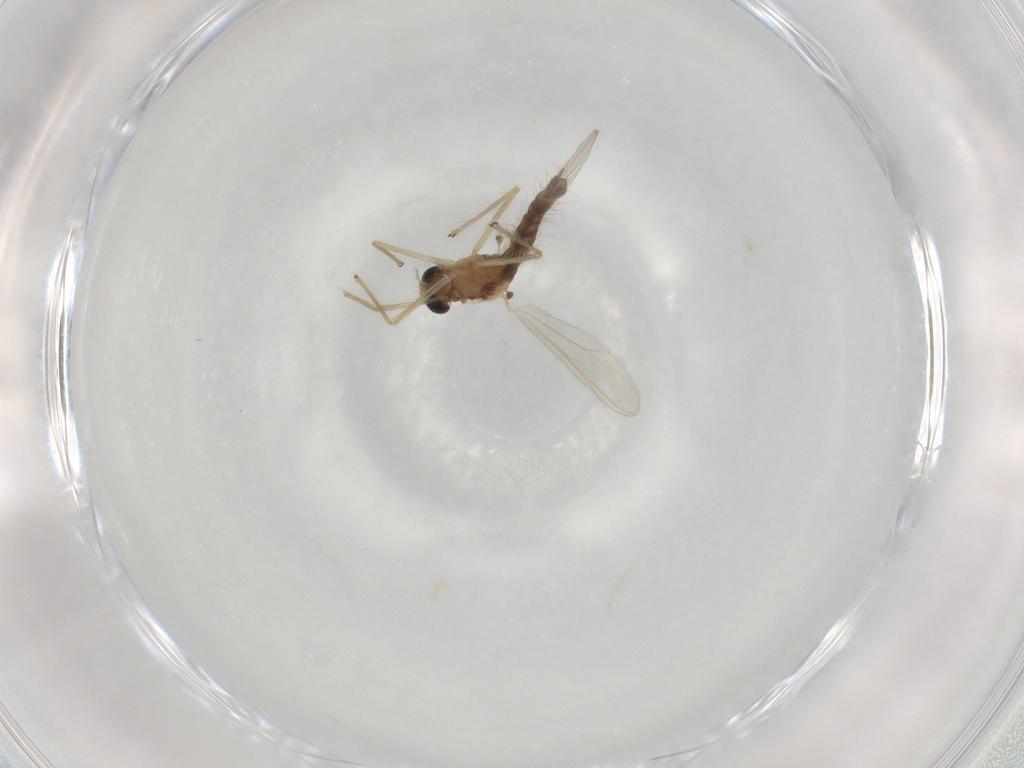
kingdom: Animalia
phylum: Arthropoda
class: Insecta
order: Diptera
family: Chironomidae
